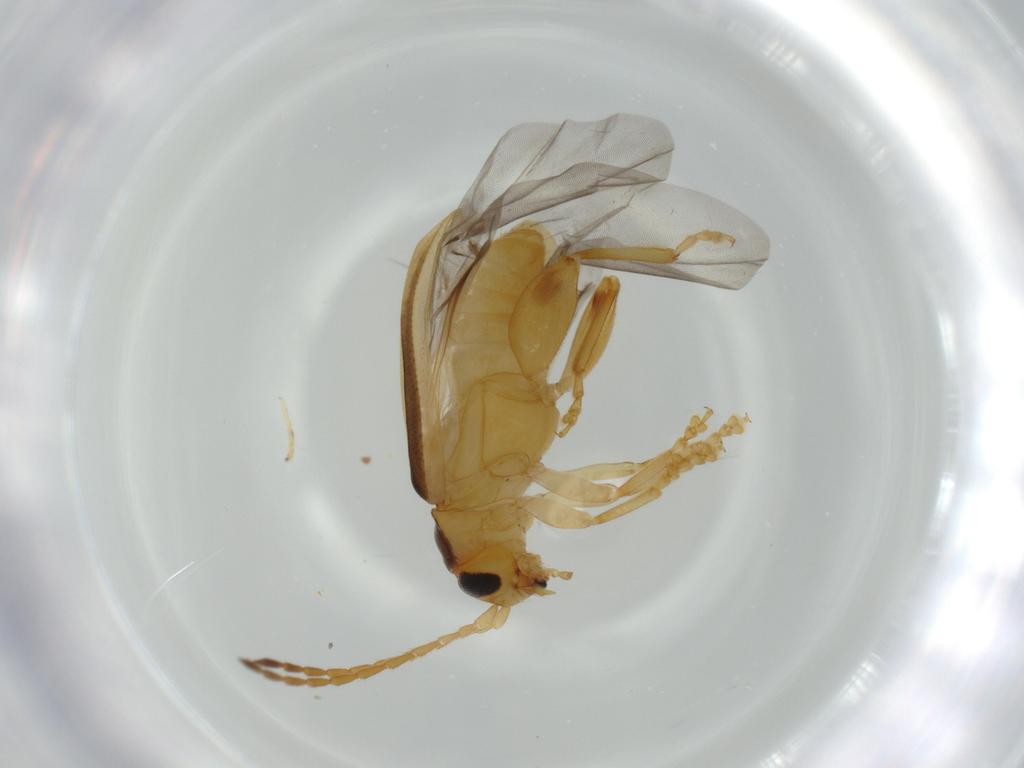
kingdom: Animalia
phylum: Arthropoda
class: Insecta
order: Coleoptera
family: Chrysomelidae
